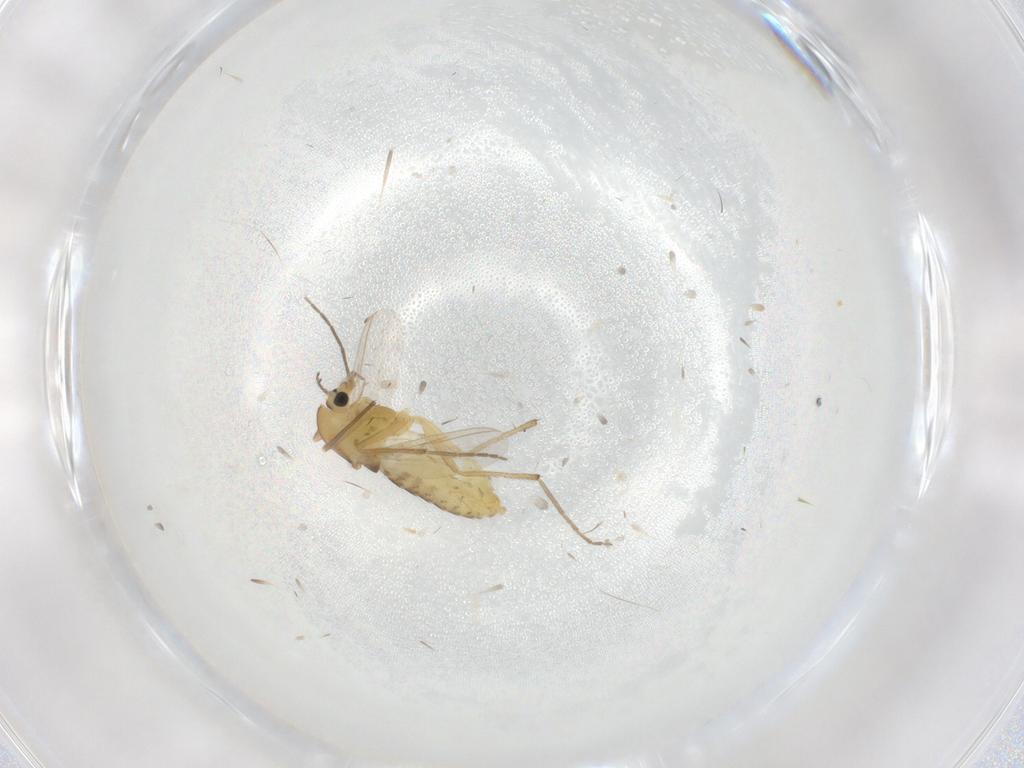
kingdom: Animalia
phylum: Arthropoda
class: Insecta
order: Diptera
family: Chironomidae
